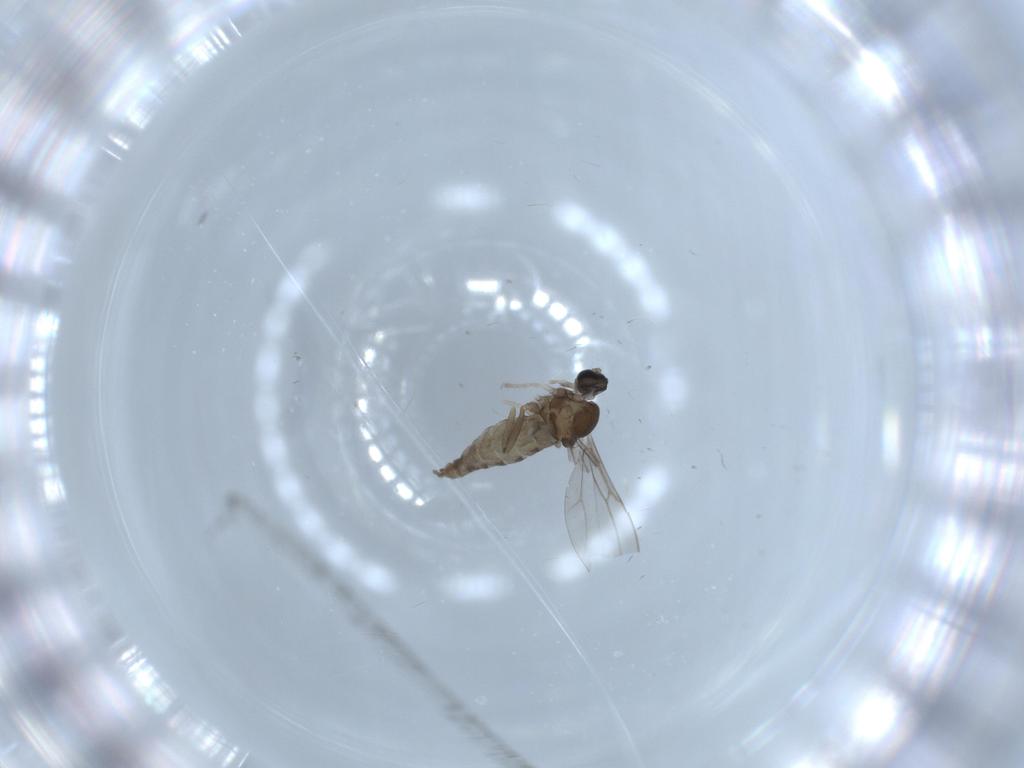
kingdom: Animalia
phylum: Arthropoda
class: Insecta
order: Diptera
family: Cecidomyiidae
